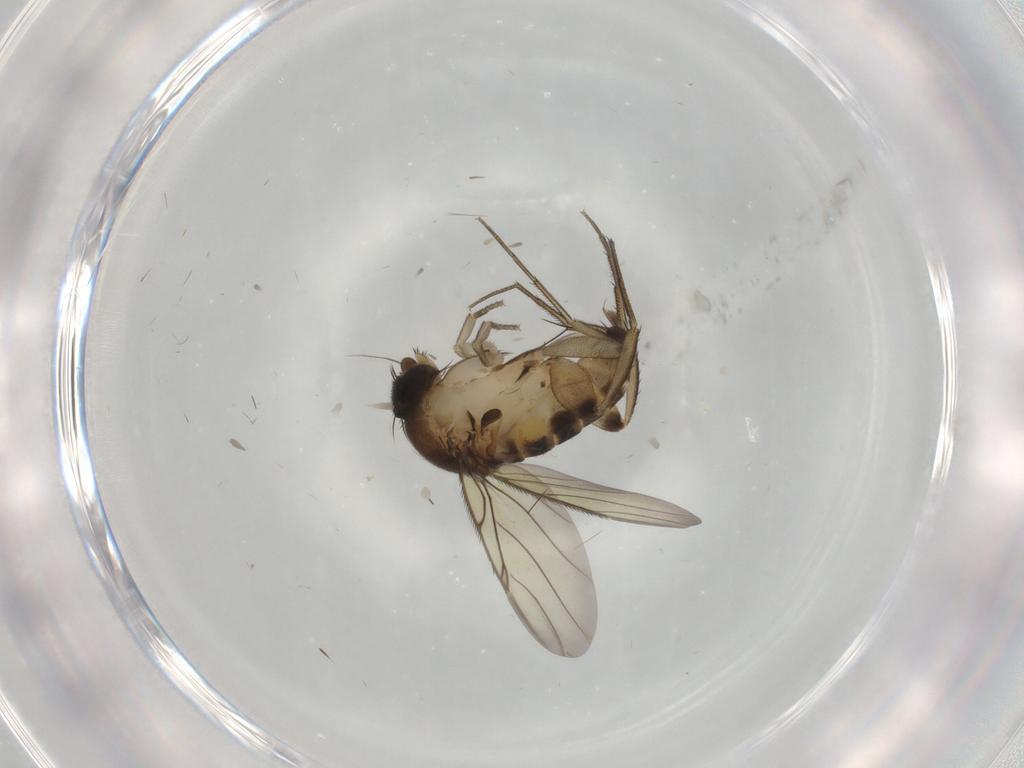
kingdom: Animalia
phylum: Arthropoda
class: Insecta
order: Diptera
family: Phoridae
